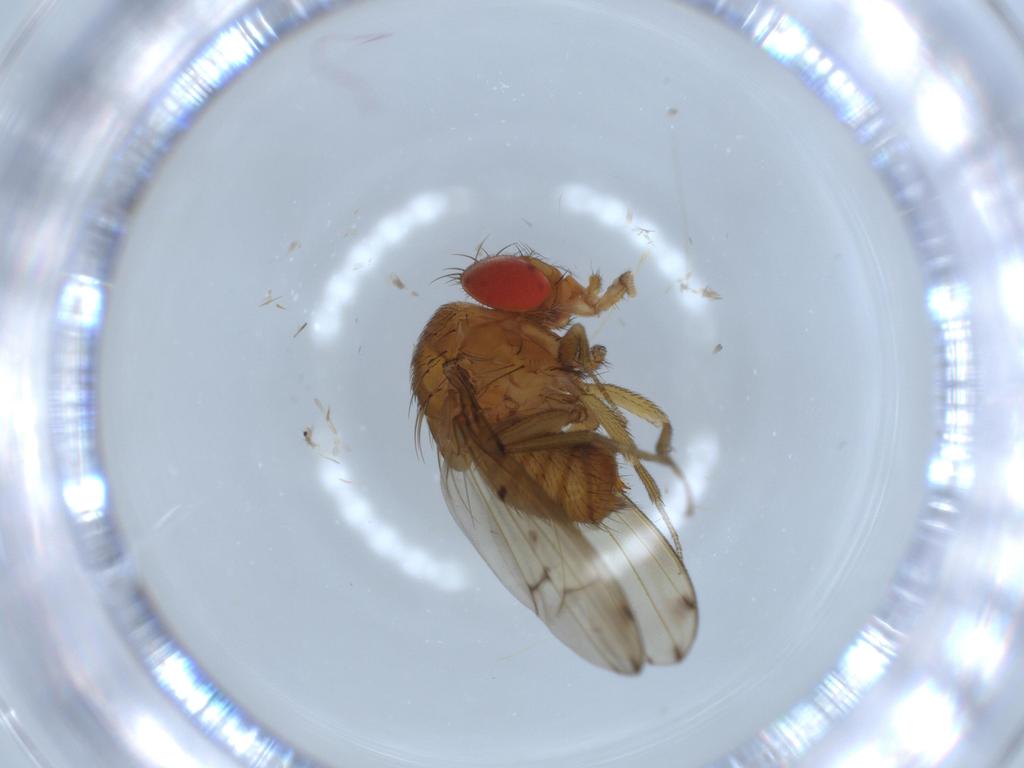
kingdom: Animalia
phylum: Arthropoda
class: Insecta
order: Diptera
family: Drosophilidae
